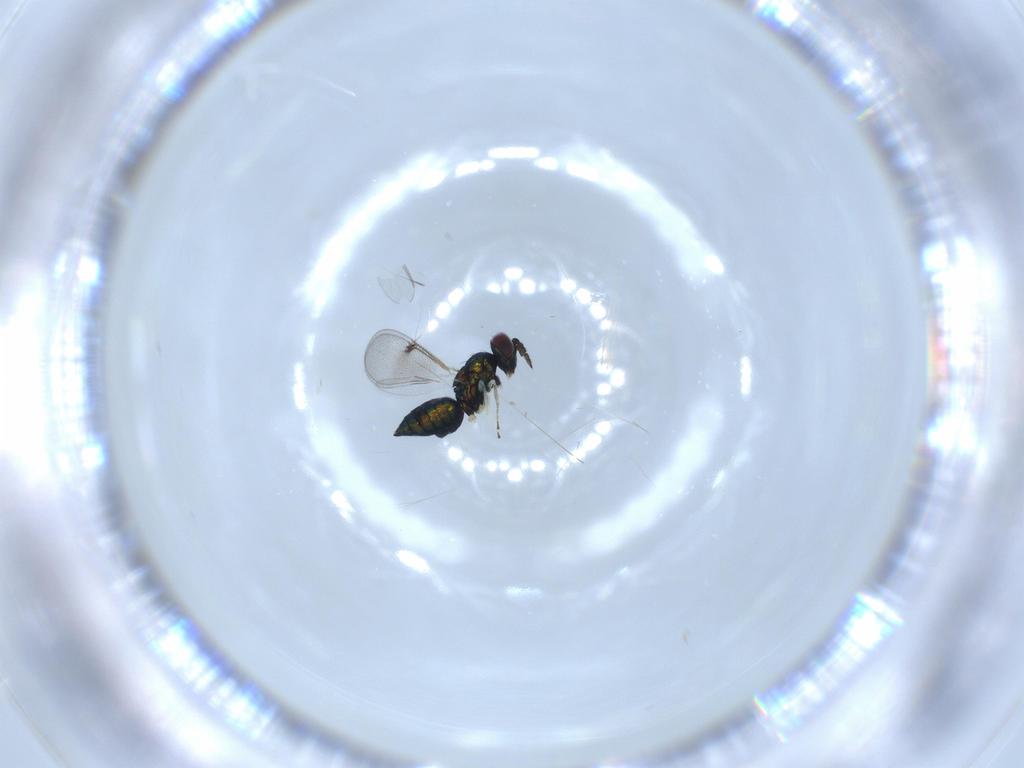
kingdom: Animalia
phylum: Arthropoda
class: Insecta
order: Hymenoptera
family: Eulophidae
